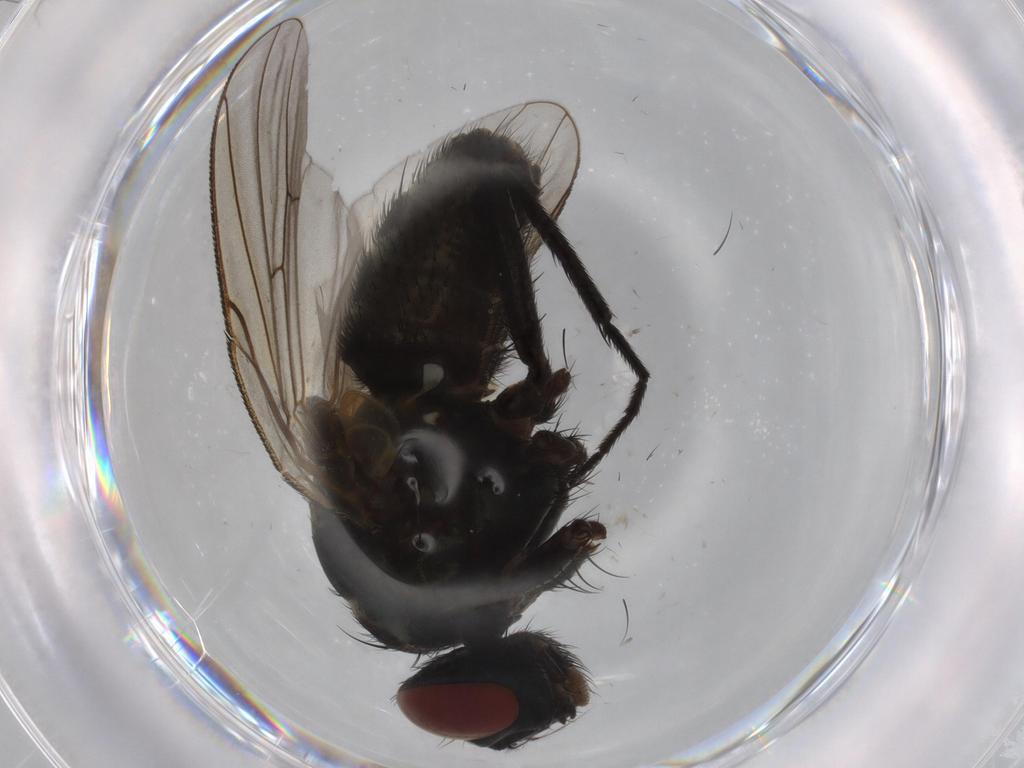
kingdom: Animalia
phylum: Arthropoda
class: Insecta
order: Diptera
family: Muscidae
